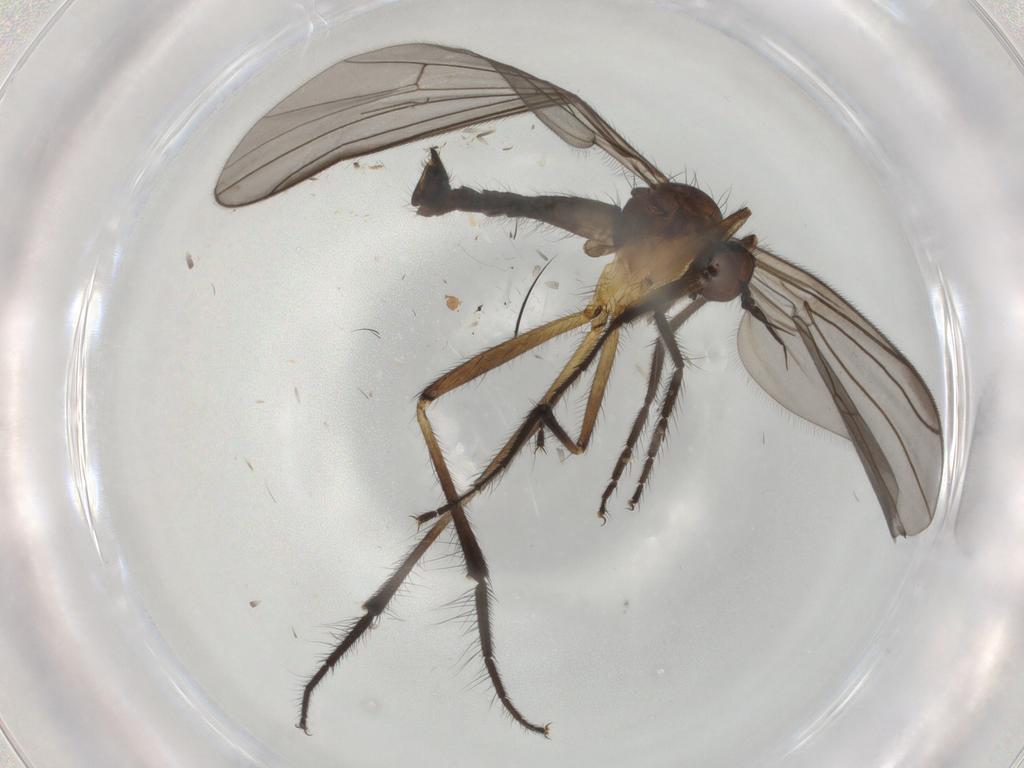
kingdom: Animalia
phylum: Arthropoda
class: Insecta
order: Diptera
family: Empididae
